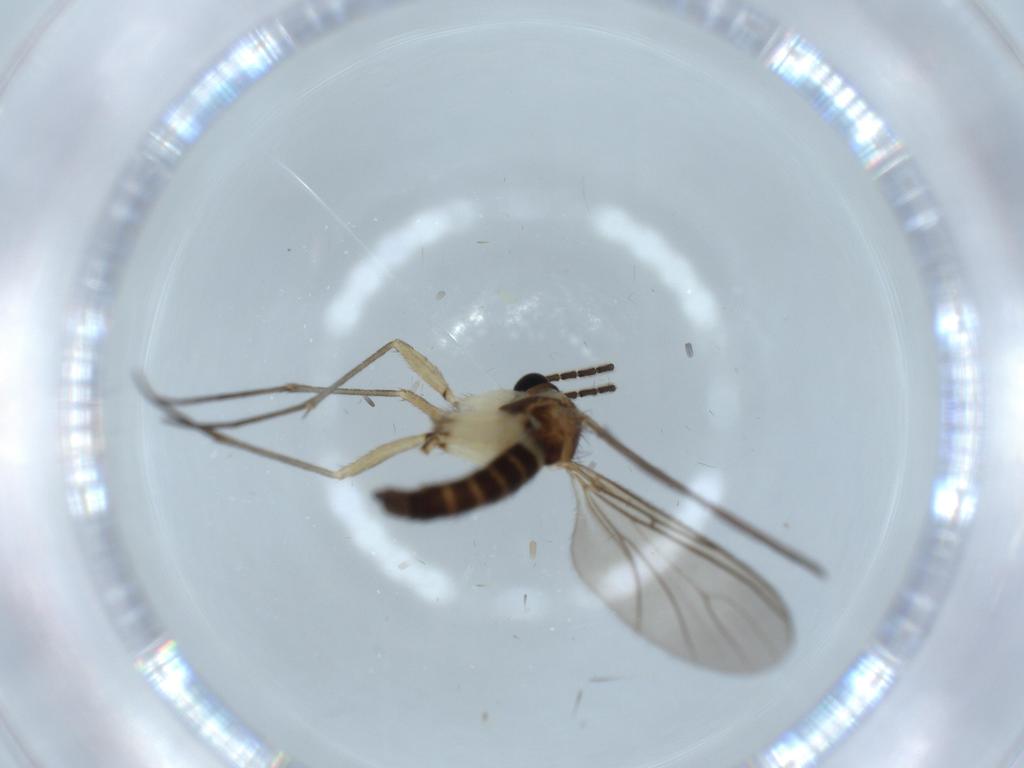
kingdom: Animalia
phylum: Arthropoda
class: Insecta
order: Diptera
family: Sciaridae
